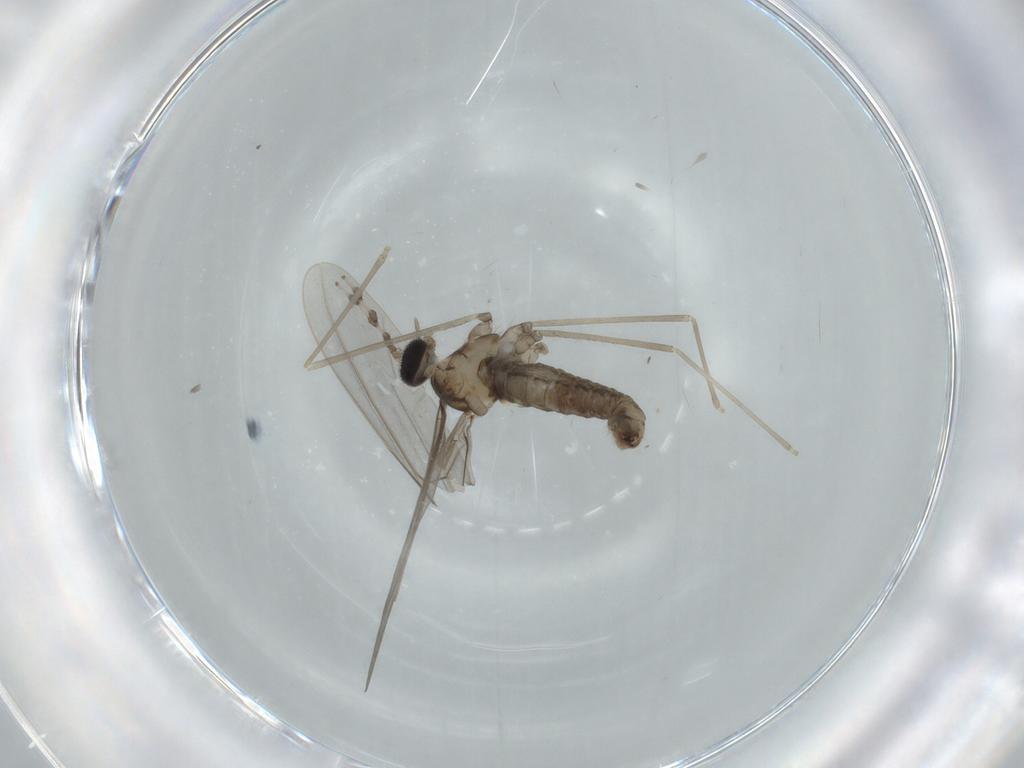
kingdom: Animalia
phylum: Arthropoda
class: Insecta
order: Diptera
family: Cecidomyiidae
